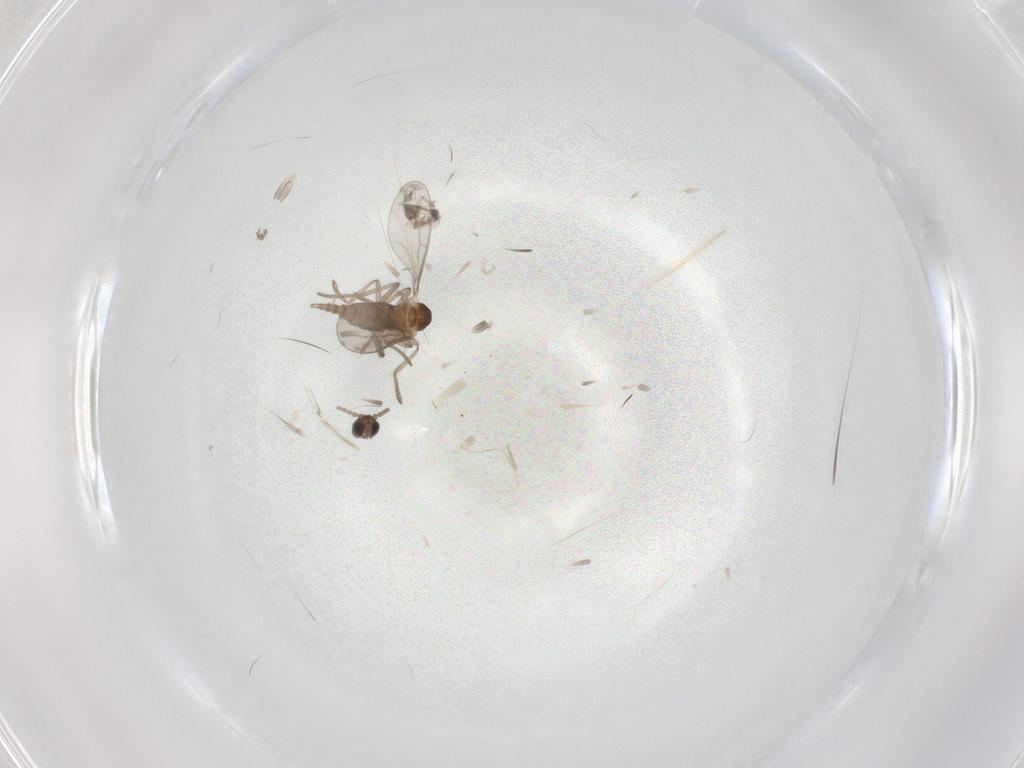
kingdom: Animalia
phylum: Arthropoda
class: Insecta
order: Diptera
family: Cecidomyiidae
